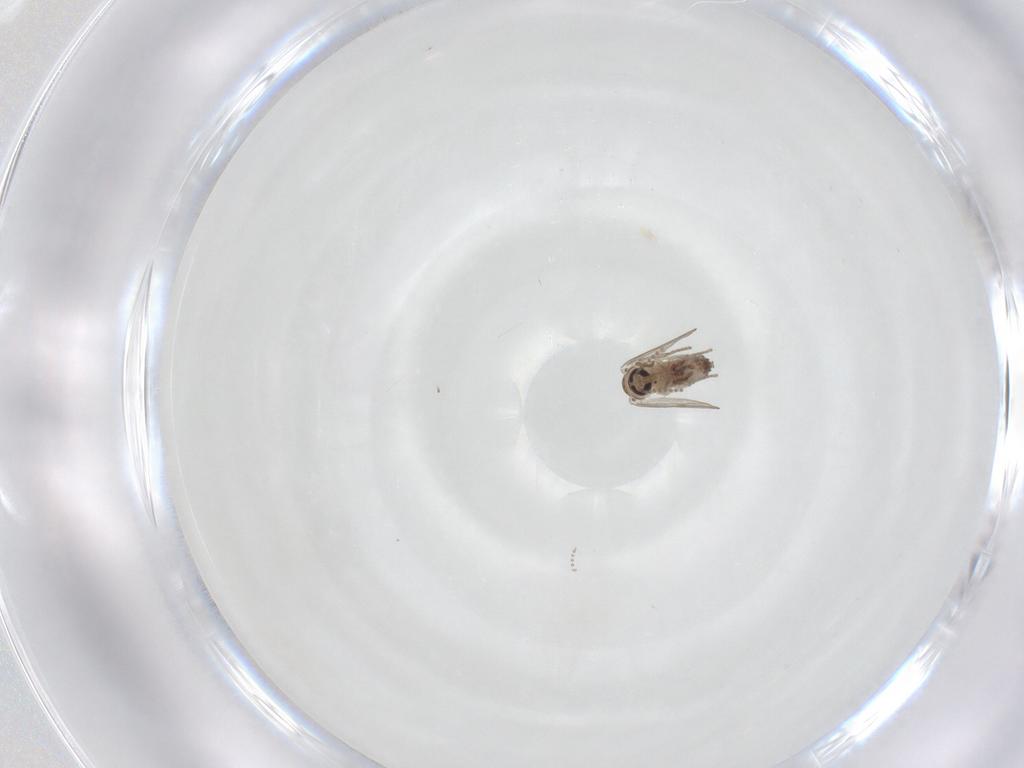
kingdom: Animalia
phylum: Arthropoda
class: Insecta
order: Diptera
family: Psychodidae
